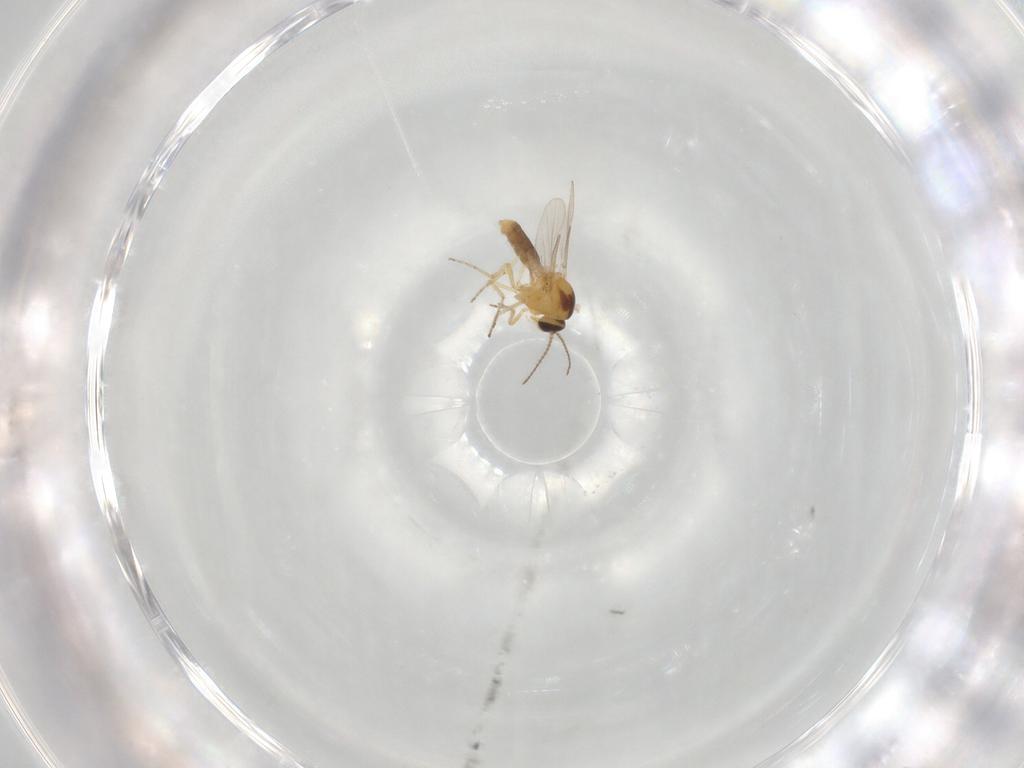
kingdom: Animalia
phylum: Arthropoda
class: Insecta
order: Diptera
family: Ceratopogonidae
